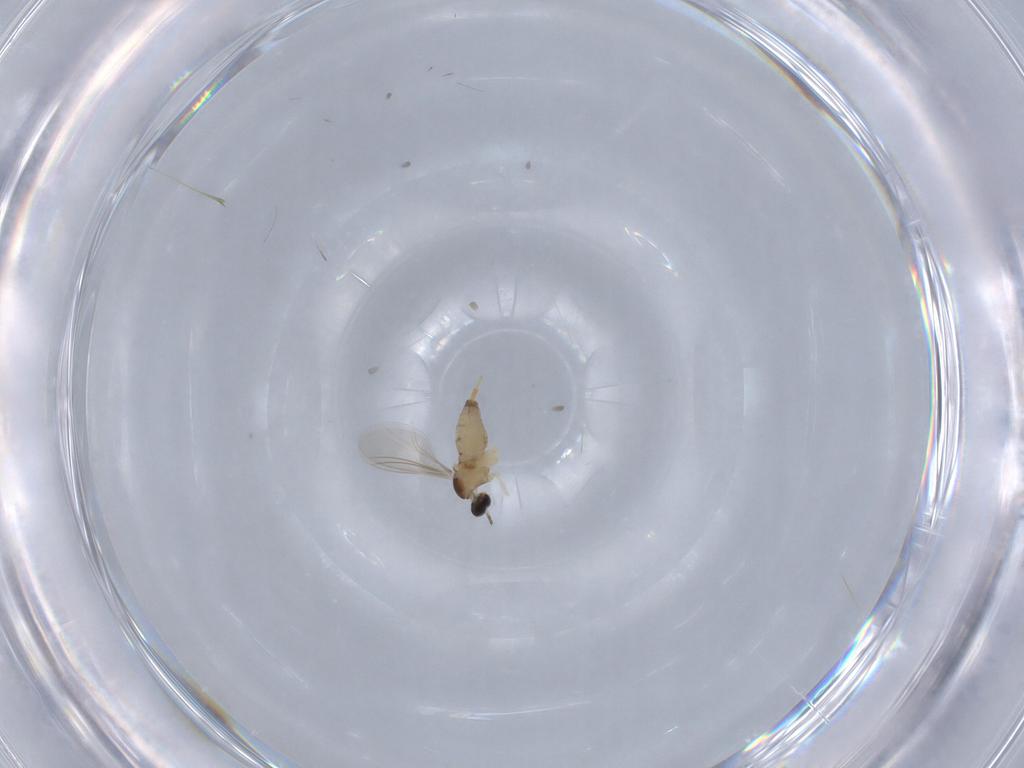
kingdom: Animalia
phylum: Arthropoda
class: Insecta
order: Diptera
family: Cecidomyiidae
